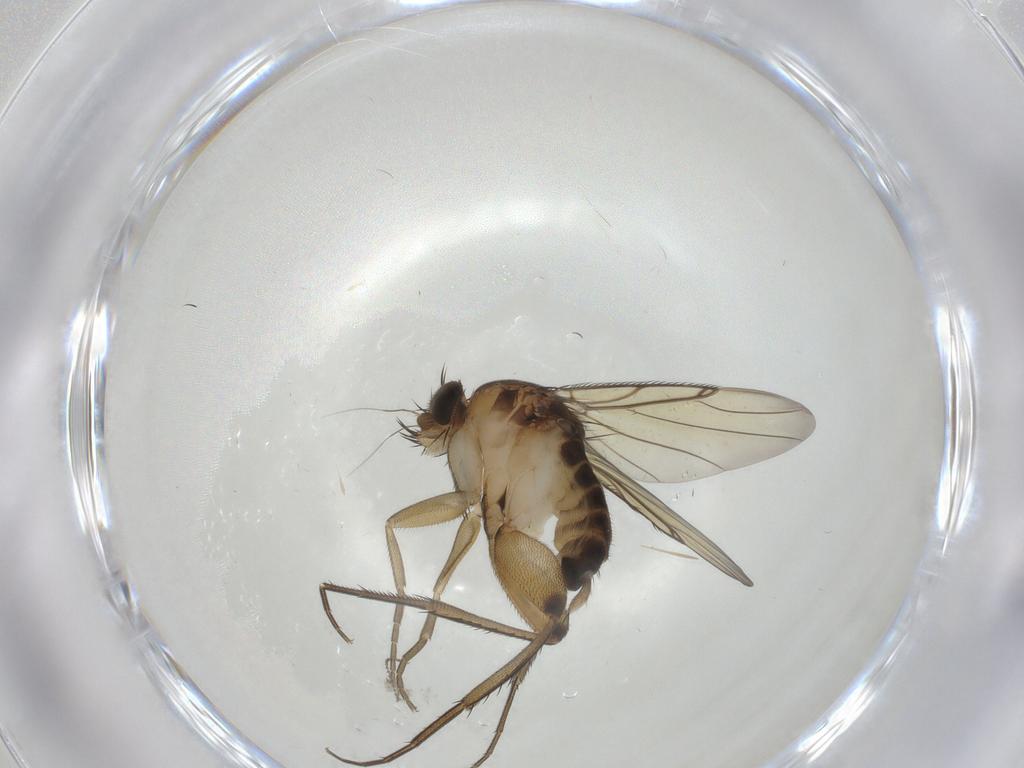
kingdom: Animalia
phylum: Arthropoda
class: Insecta
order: Diptera
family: Phoridae
